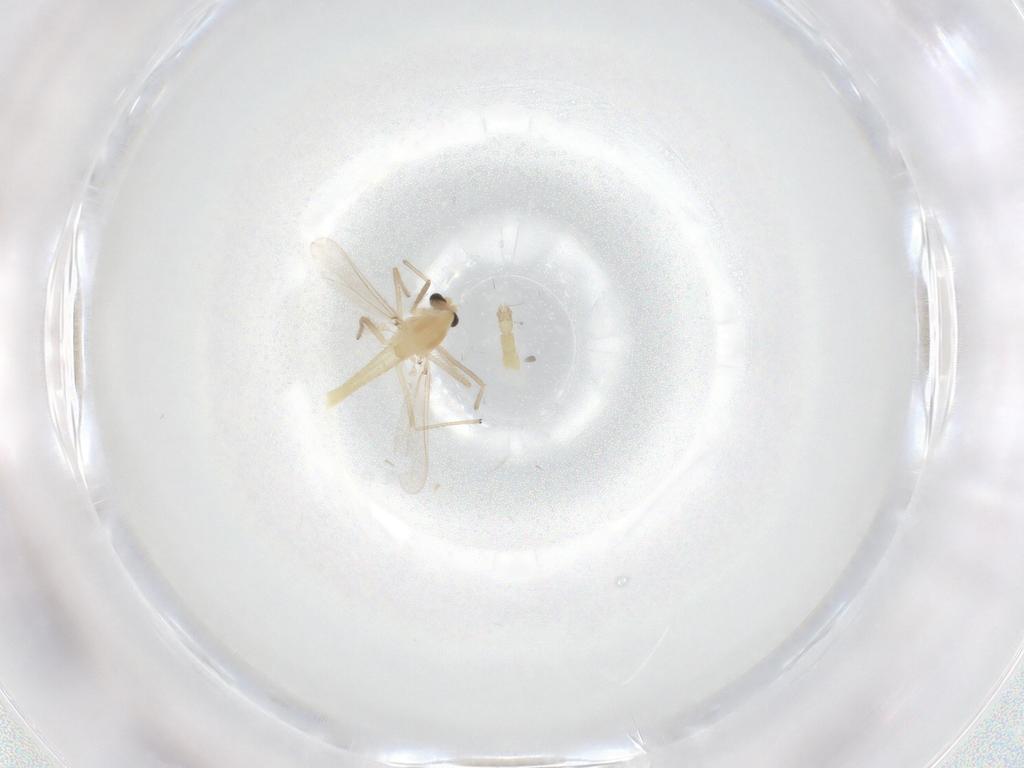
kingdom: Animalia
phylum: Arthropoda
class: Insecta
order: Diptera
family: Chironomidae
